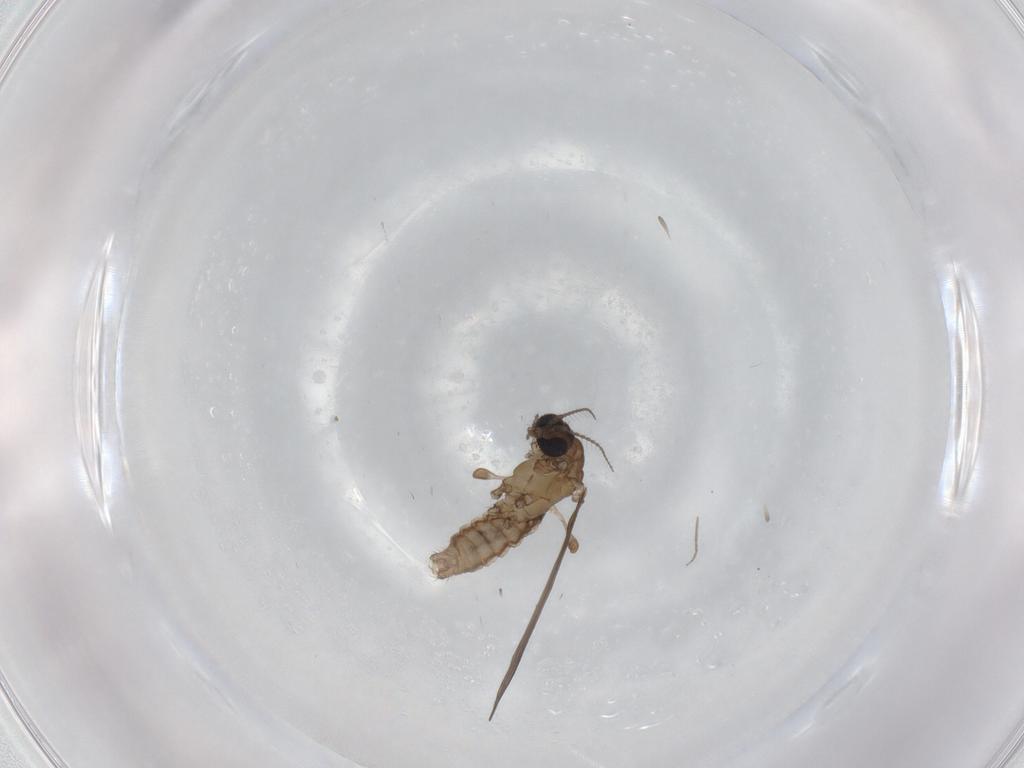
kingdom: Animalia
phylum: Arthropoda
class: Insecta
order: Diptera
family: Limoniidae
